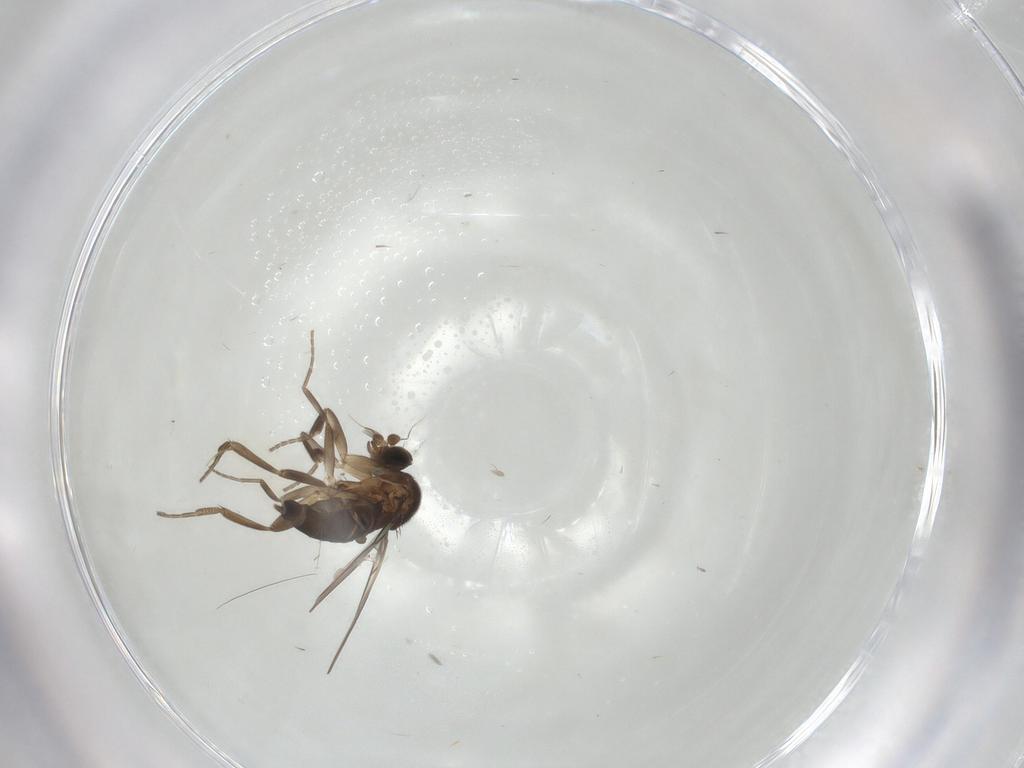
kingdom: Animalia
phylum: Arthropoda
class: Insecta
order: Diptera
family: Phoridae
